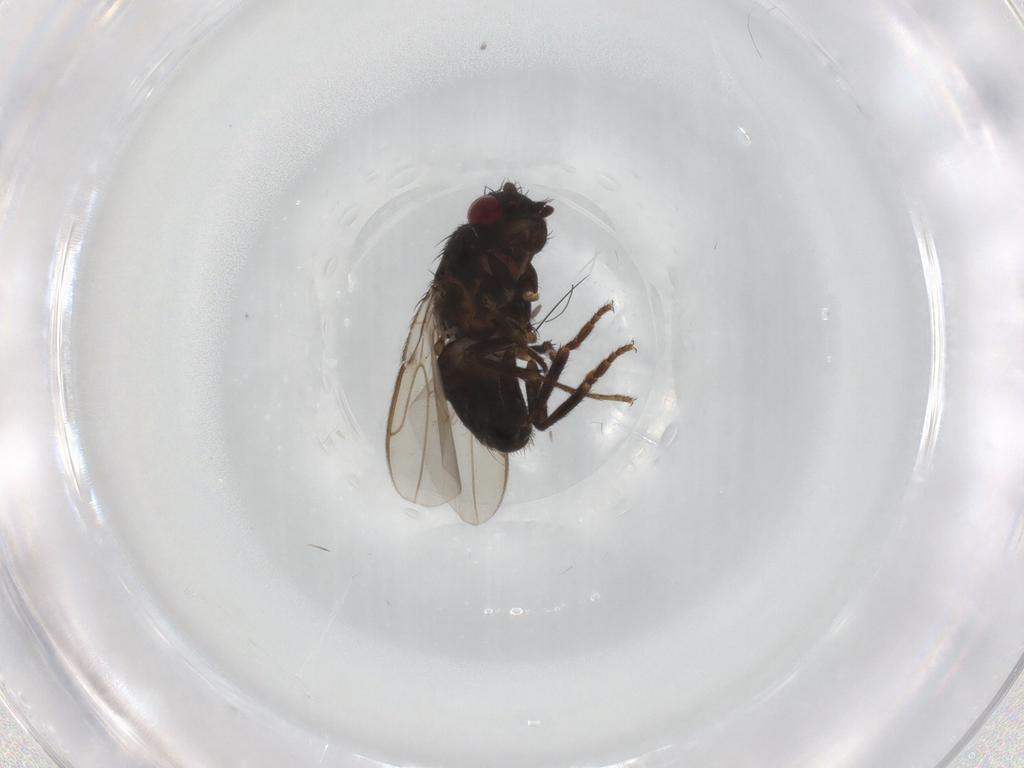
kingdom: Animalia
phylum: Arthropoda
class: Insecta
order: Diptera
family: Sphaeroceridae
